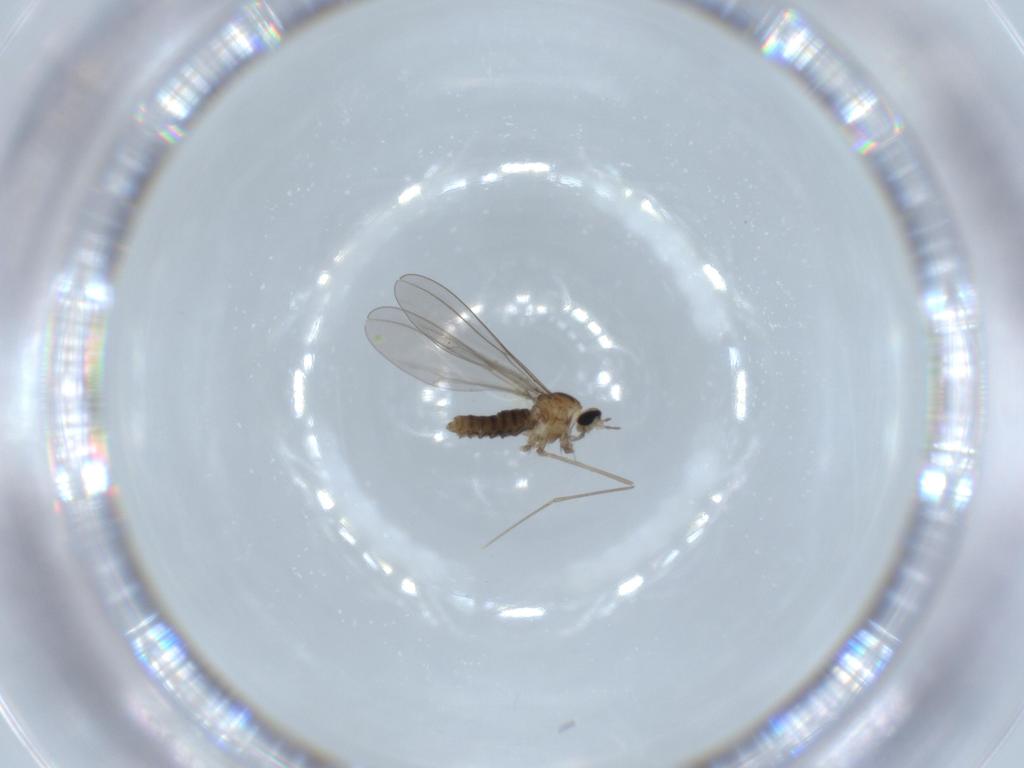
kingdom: Animalia
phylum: Arthropoda
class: Insecta
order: Diptera
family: Cecidomyiidae
